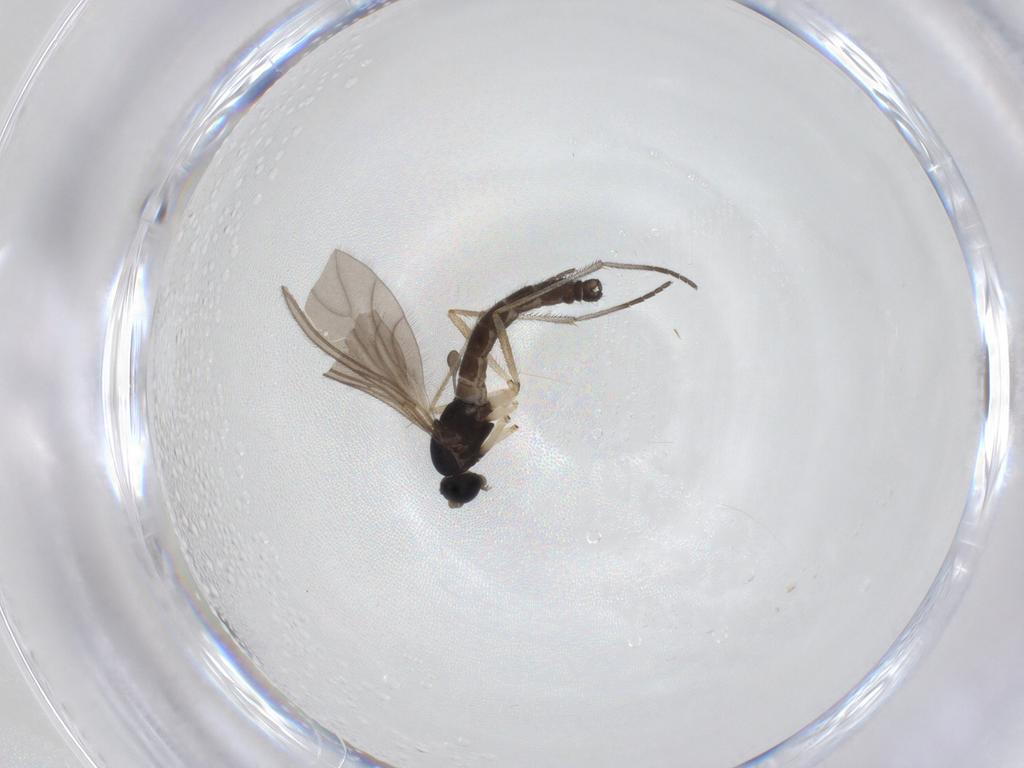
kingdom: Animalia
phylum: Arthropoda
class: Insecta
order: Diptera
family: Sciaridae
